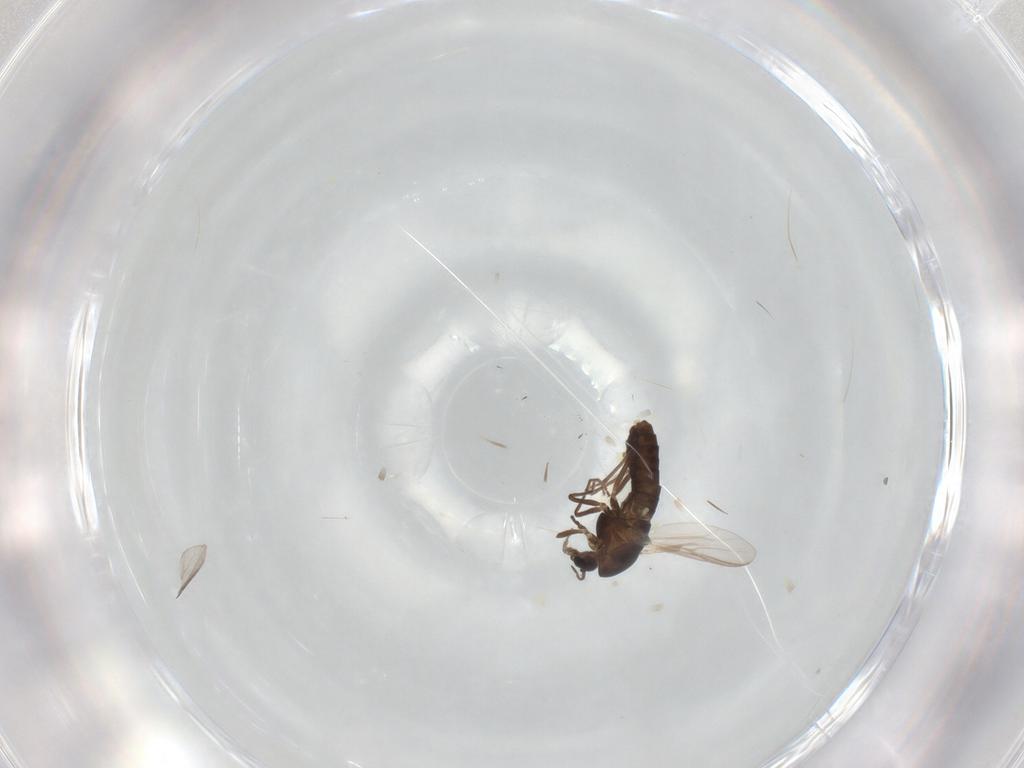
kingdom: Animalia
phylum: Arthropoda
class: Insecta
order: Diptera
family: Chironomidae
